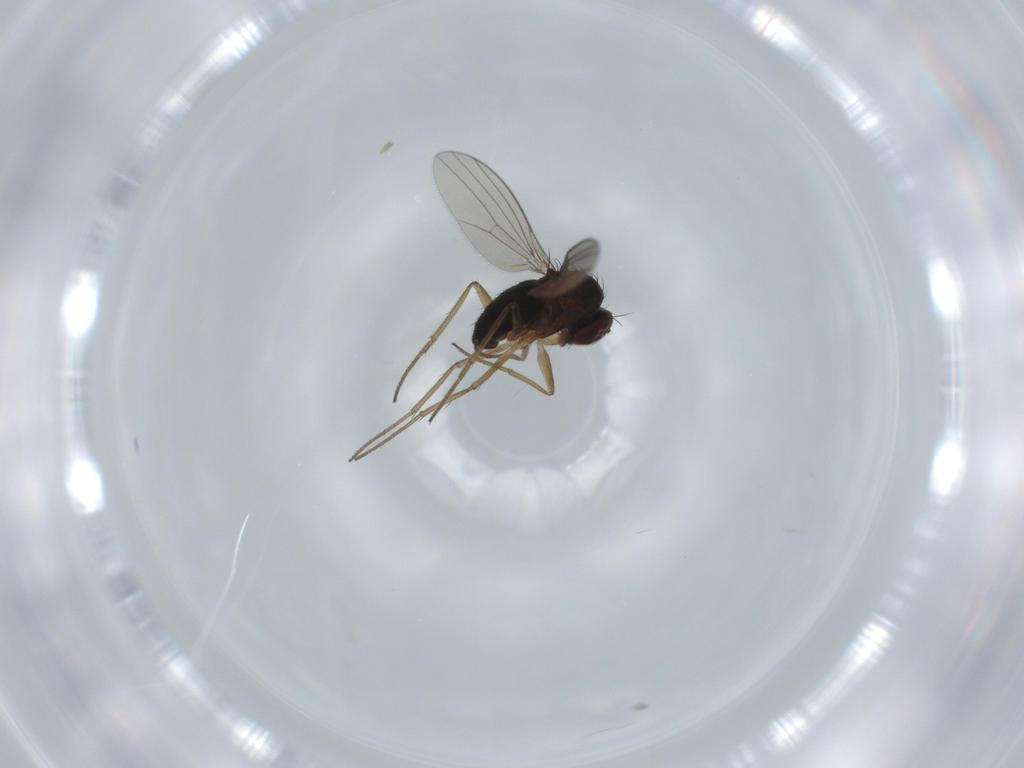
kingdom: Animalia
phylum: Arthropoda
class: Insecta
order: Diptera
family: Dolichopodidae
